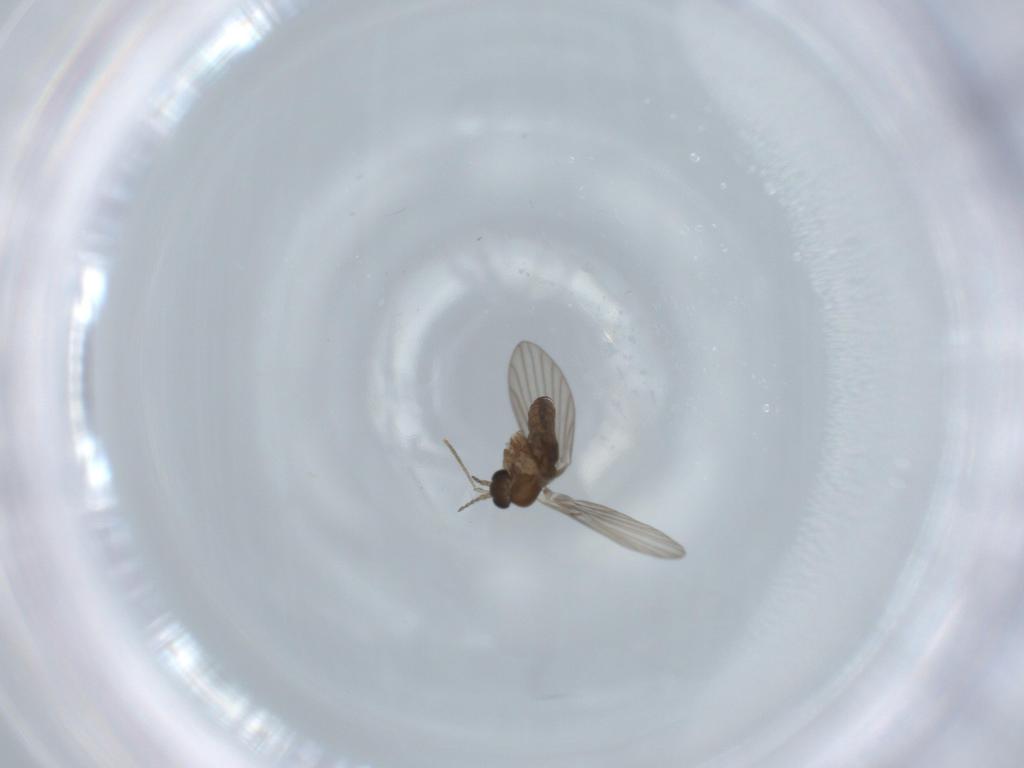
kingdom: Animalia
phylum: Arthropoda
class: Insecta
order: Diptera
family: Psychodidae
